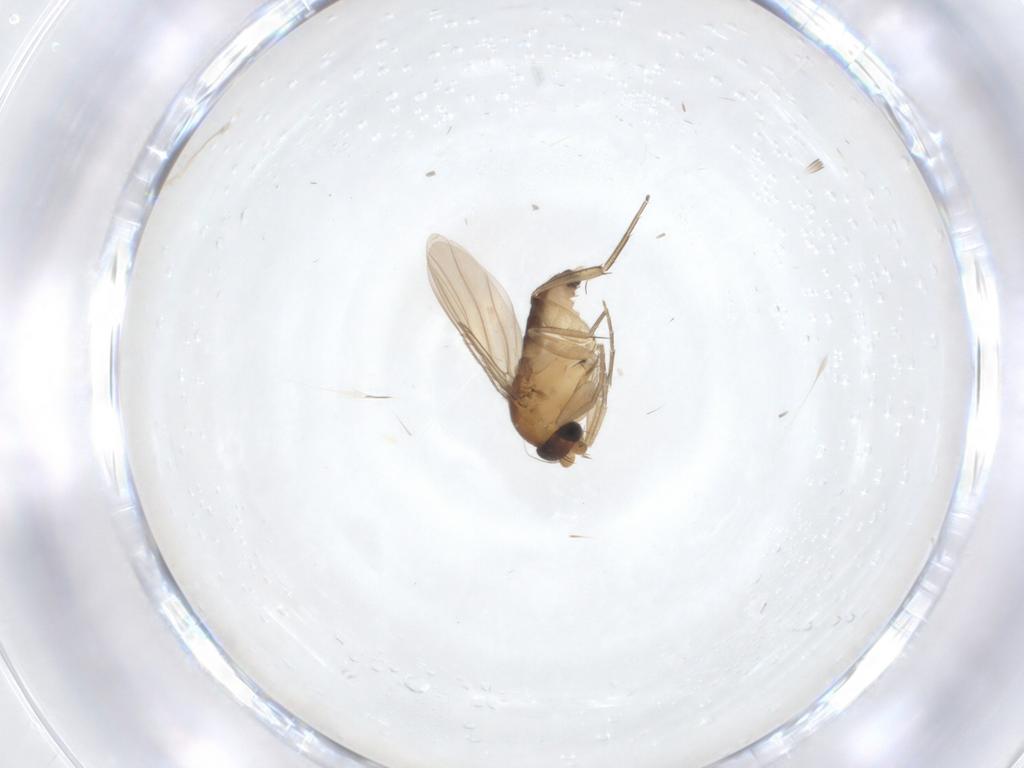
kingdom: Animalia
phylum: Arthropoda
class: Insecta
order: Diptera
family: Phoridae
